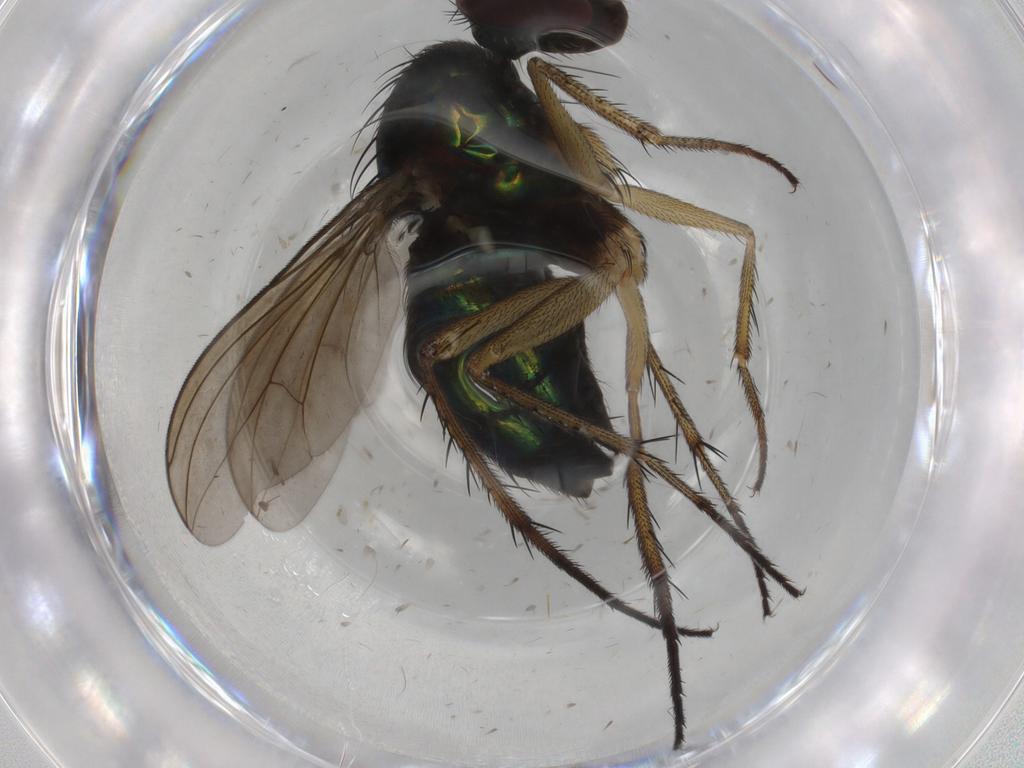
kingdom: Animalia
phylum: Arthropoda
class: Insecta
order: Diptera
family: Dolichopodidae
